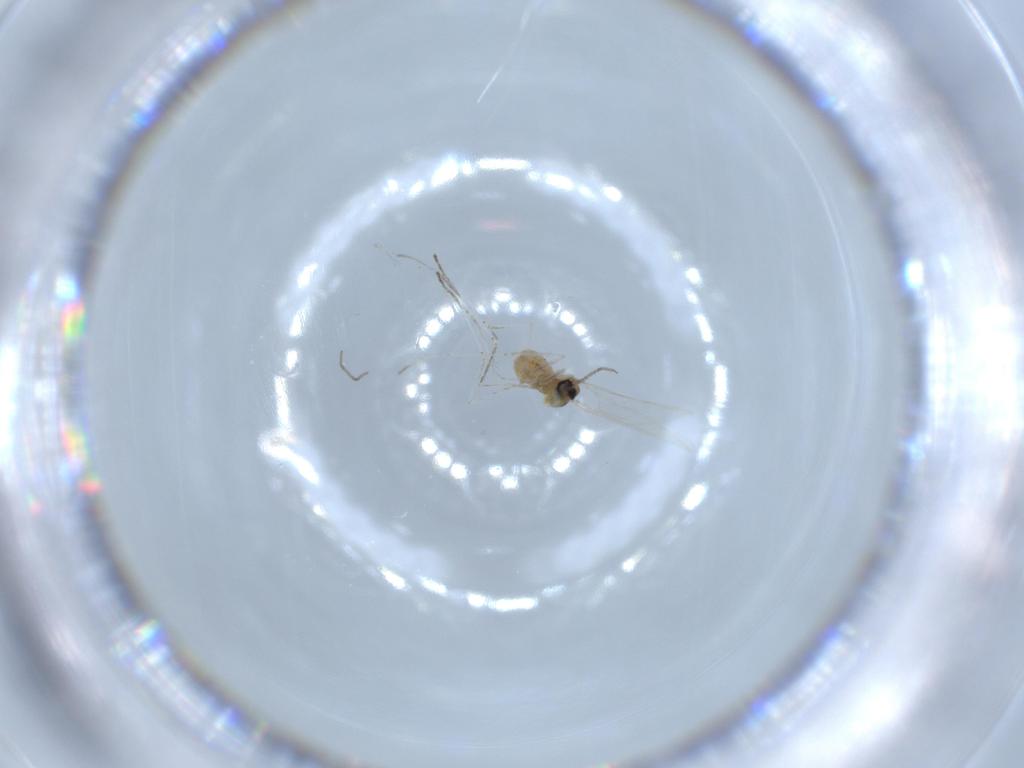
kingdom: Animalia
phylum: Arthropoda
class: Insecta
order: Diptera
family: Cecidomyiidae
